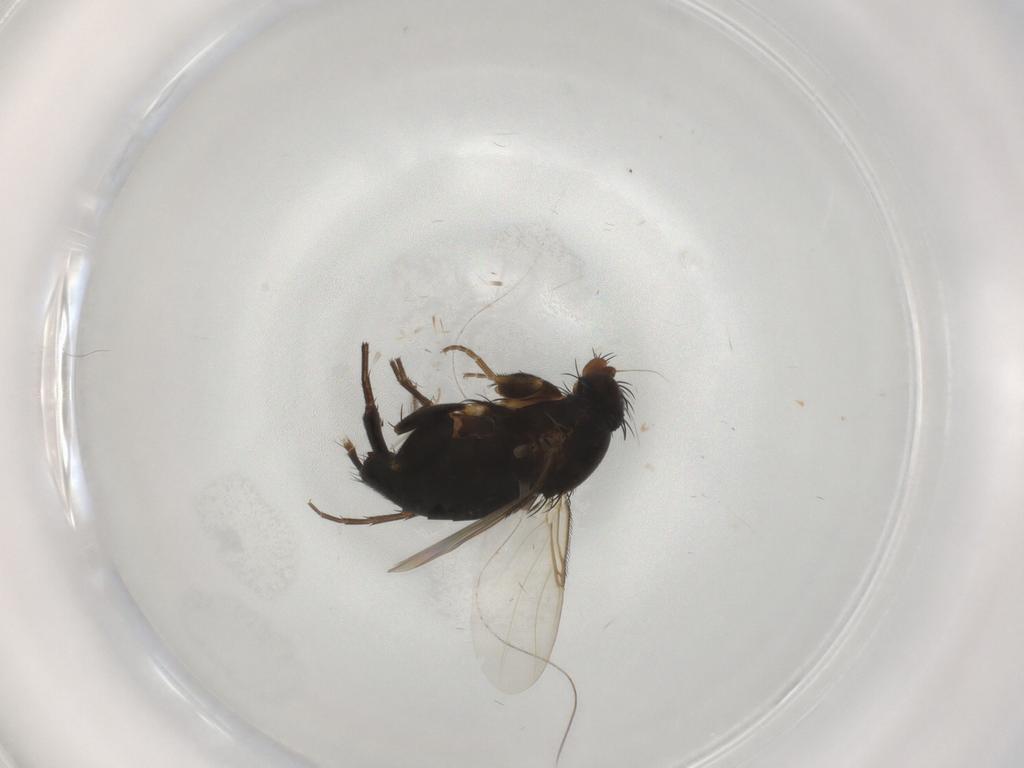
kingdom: Animalia
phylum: Arthropoda
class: Insecta
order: Diptera
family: Phoridae
